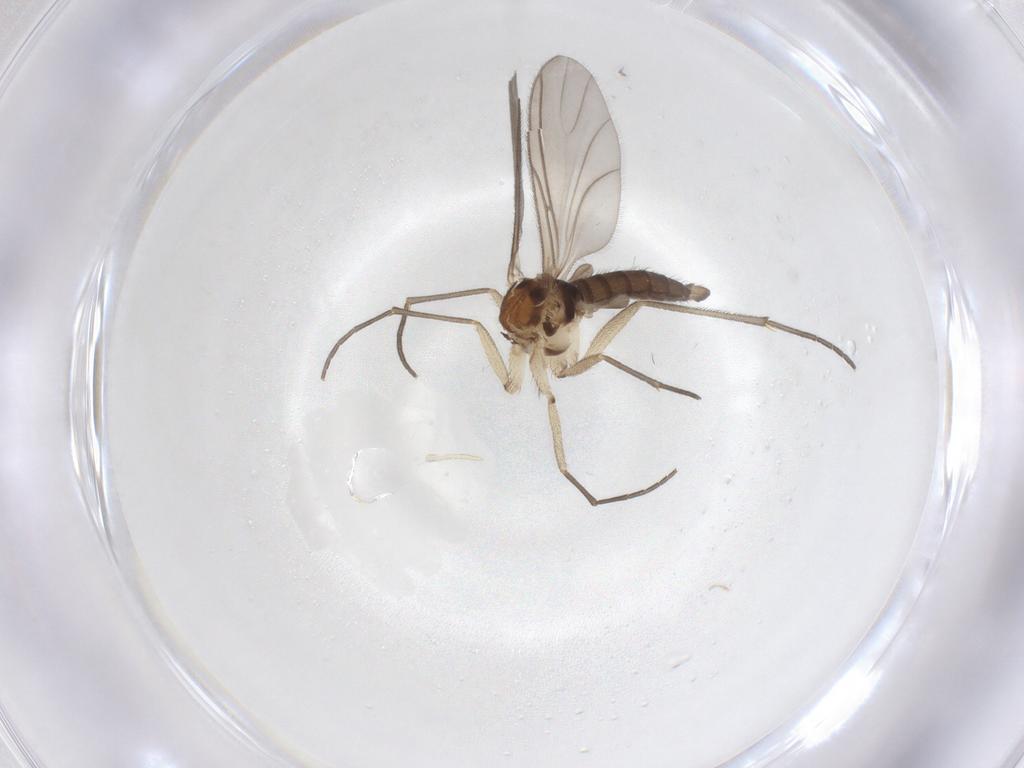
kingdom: Animalia
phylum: Arthropoda
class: Insecta
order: Diptera
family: Sciaridae
